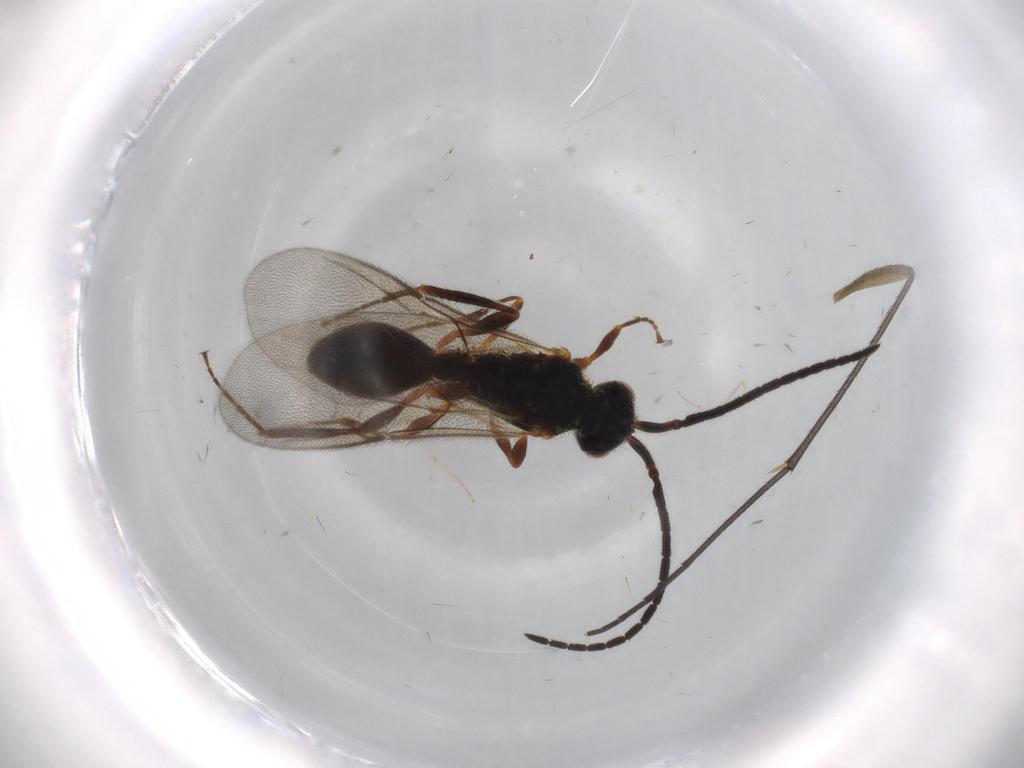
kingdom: Animalia
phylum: Arthropoda
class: Insecta
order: Hymenoptera
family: Diapriidae
